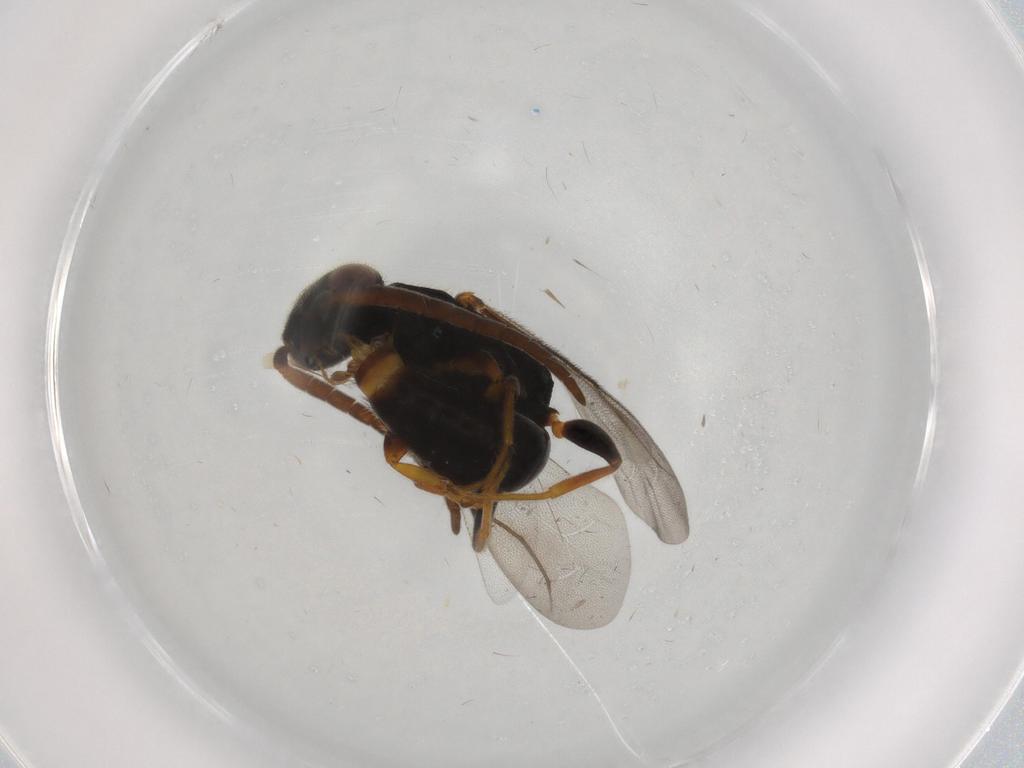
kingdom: Animalia
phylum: Arthropoda
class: Insecta
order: Hymenoptera
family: Bethylidae
